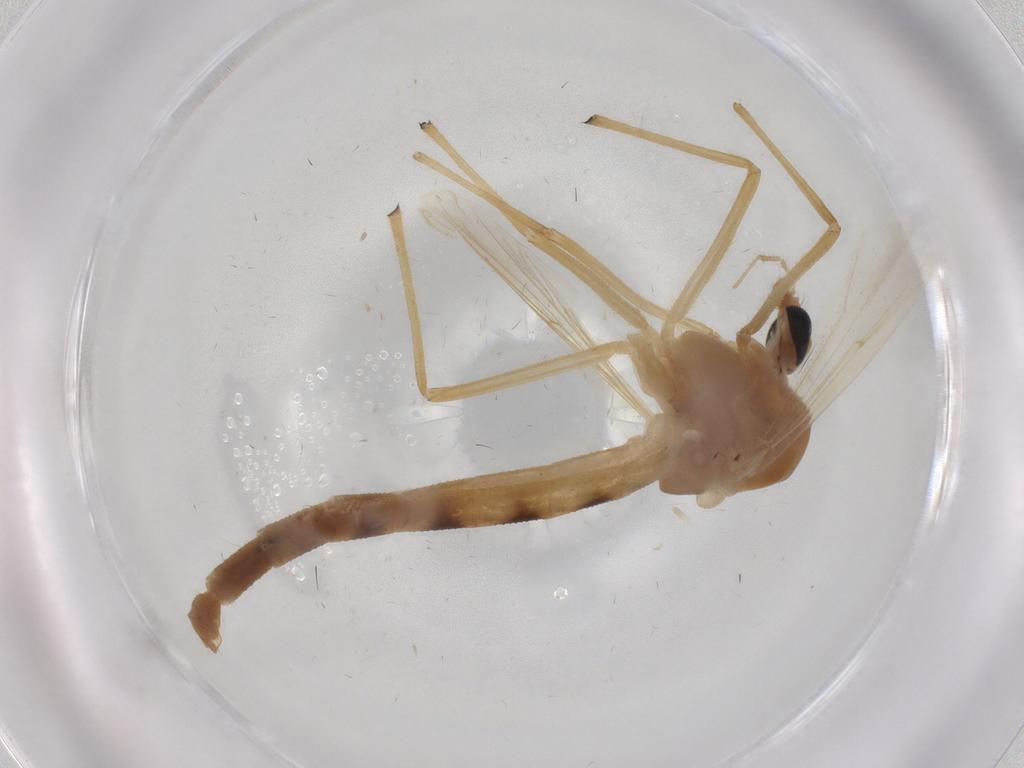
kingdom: Animalia
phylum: Arthropoda
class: Insecta
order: Diptera
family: Chironomidae
